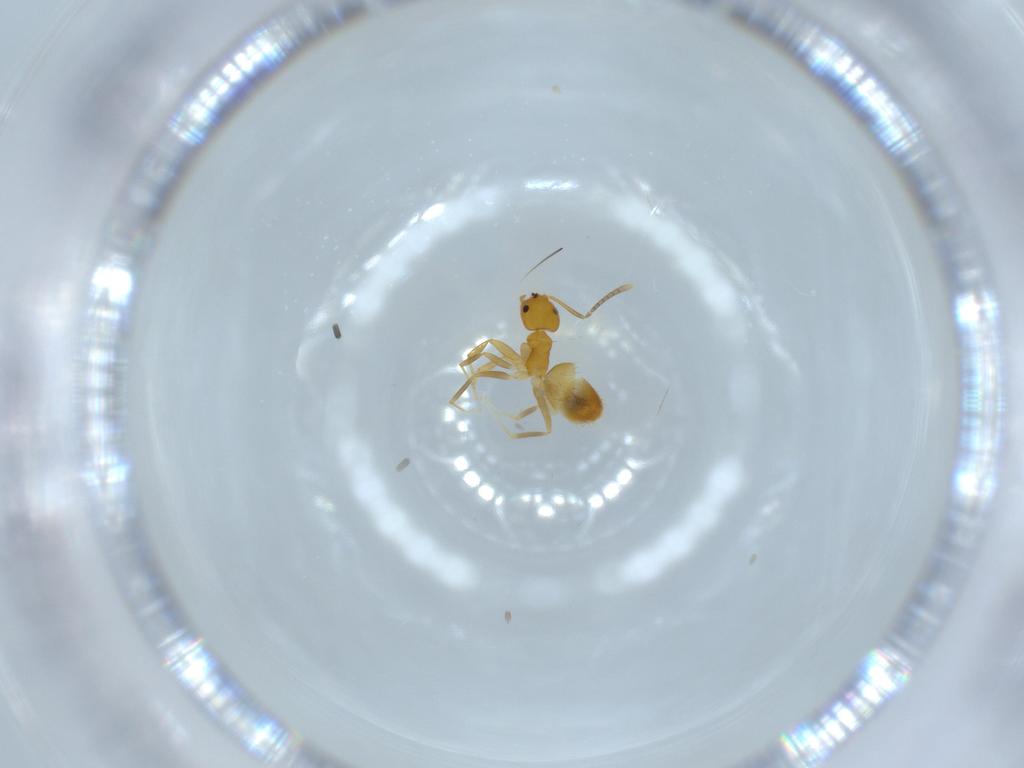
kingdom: Animalia
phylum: Arthropoda
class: Insecta
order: Hymenoptera
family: Formicidae
